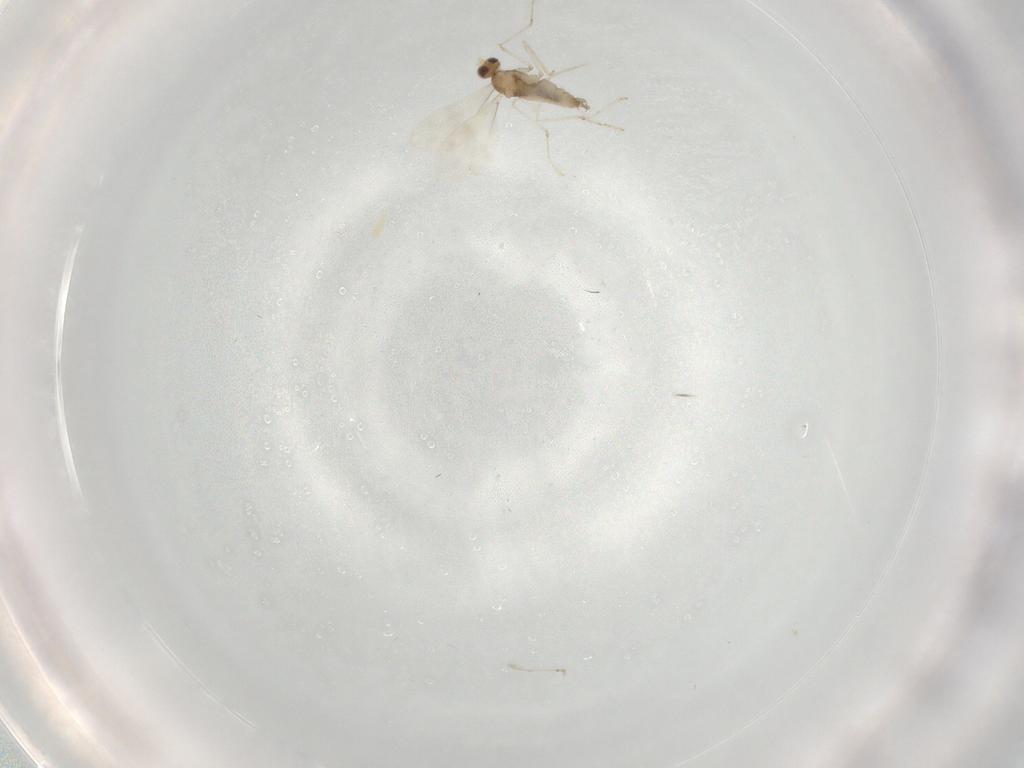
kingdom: Animalia
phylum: Arthropoda
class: Insecta
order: Diptera
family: Cecidomyiidae
